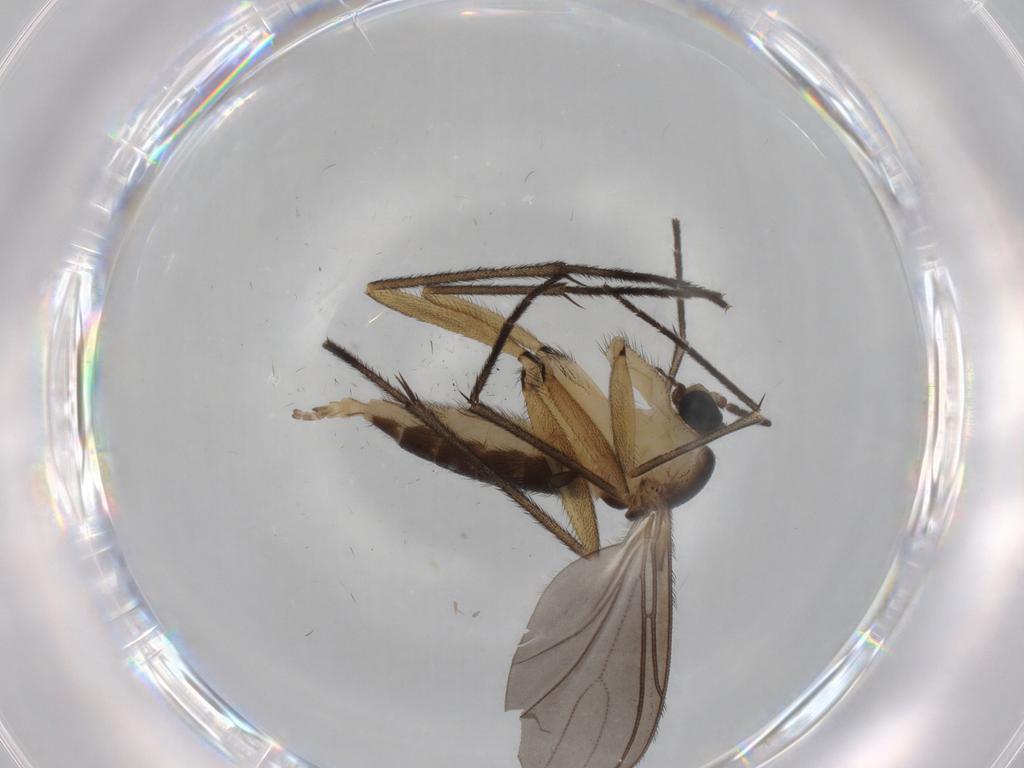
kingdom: Animalia
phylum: Arthropoda
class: Insecta
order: Diptera
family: Sciaridae
